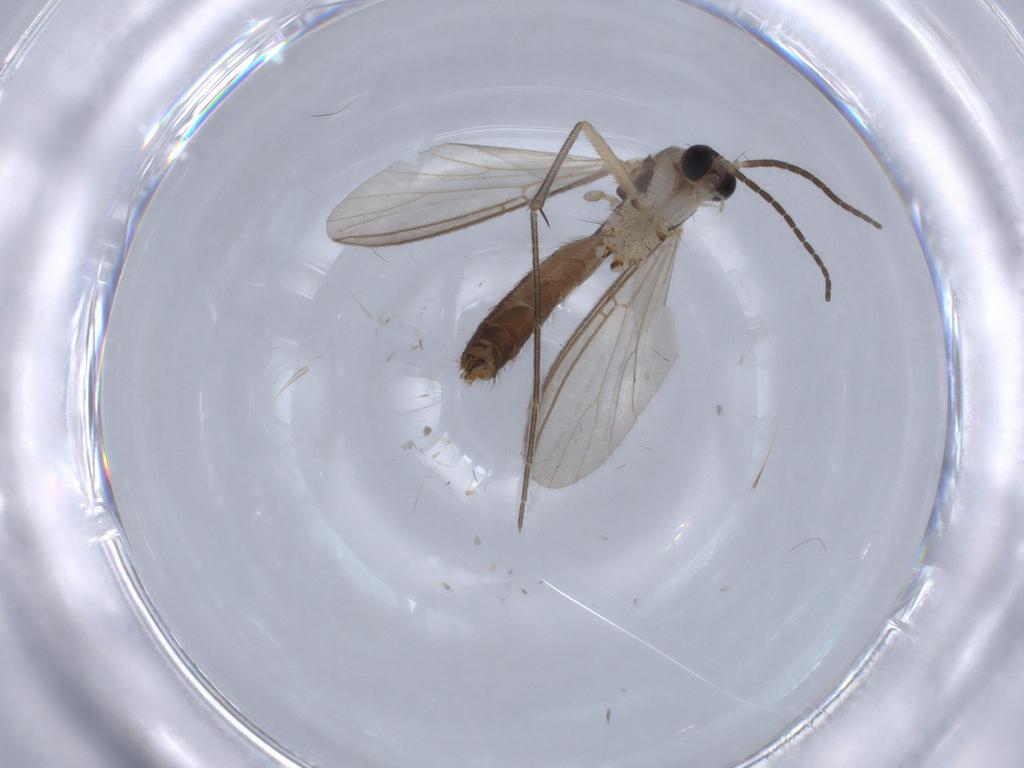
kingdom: Animalia
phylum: Arthropoda
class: Insecta
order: Diptera
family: Mycetophilidae
